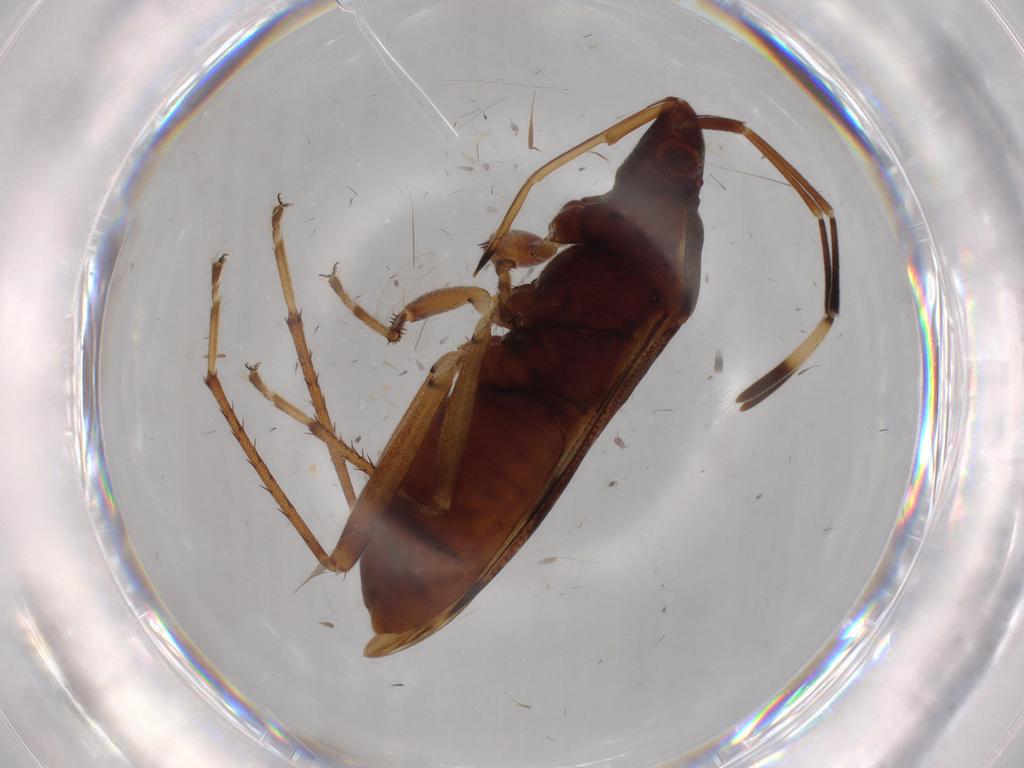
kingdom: Animalia
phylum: Arthropoda
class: Insecta
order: Hemiptera
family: Rhyparochromidae
